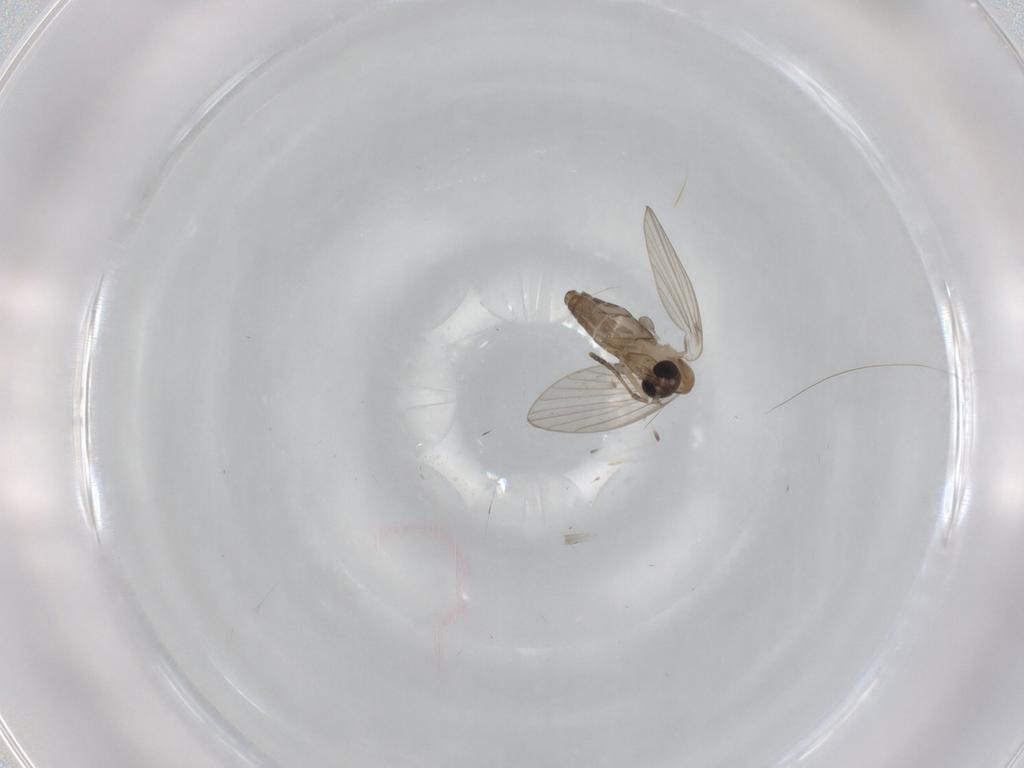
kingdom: Animalia
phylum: Arthropoda
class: Insecta
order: Diptera
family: Psychodidae
